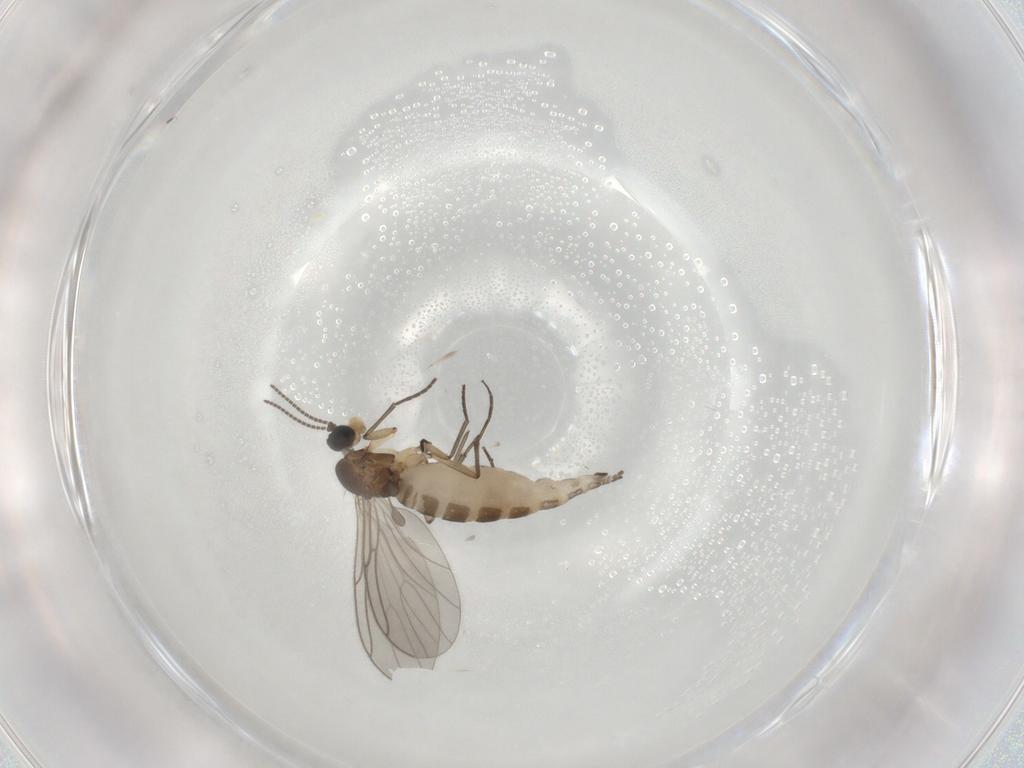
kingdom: Animalia
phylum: Arthropoda
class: Insecta
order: Diptera
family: Sciaridae
